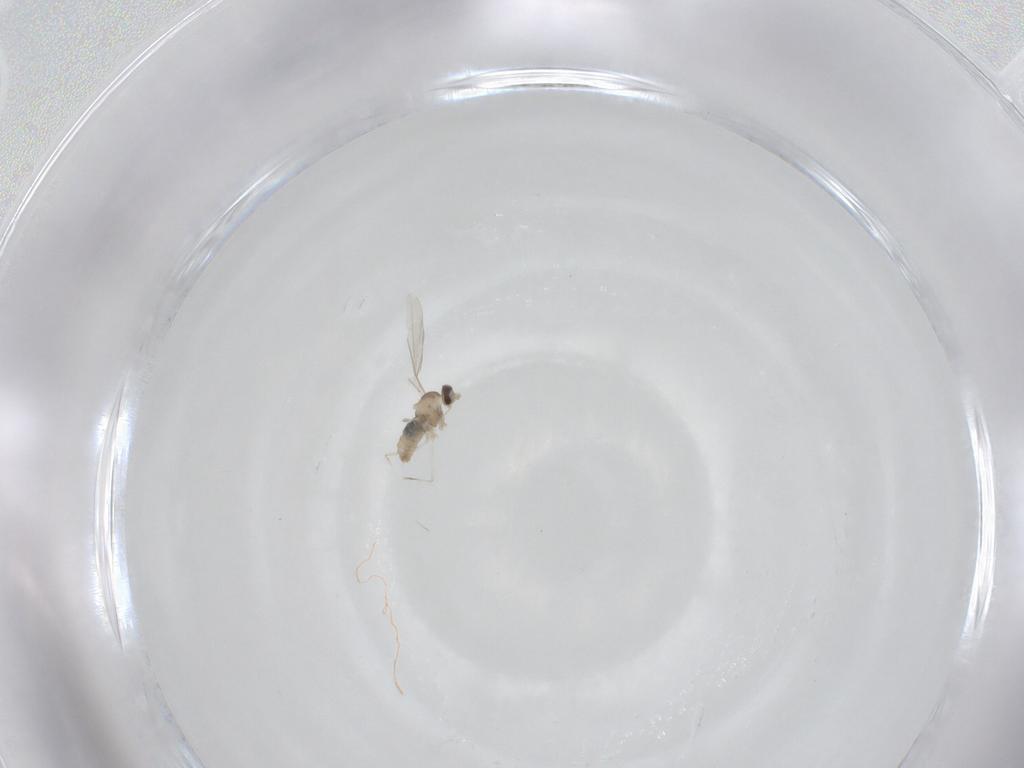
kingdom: Animalia
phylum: Arthropoda
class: Insecta
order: Diptera
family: Cecidomyiidae
